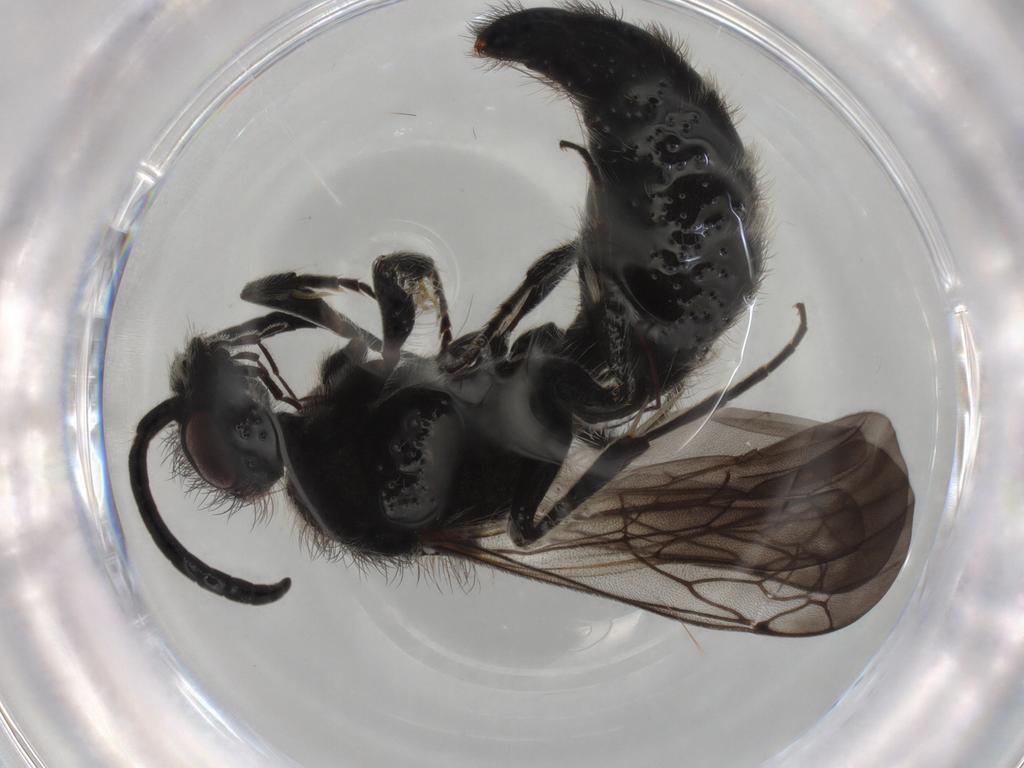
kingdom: Animalia
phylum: Arthropoda
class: Insecta
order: Hymenoptera
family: Mutillidae
